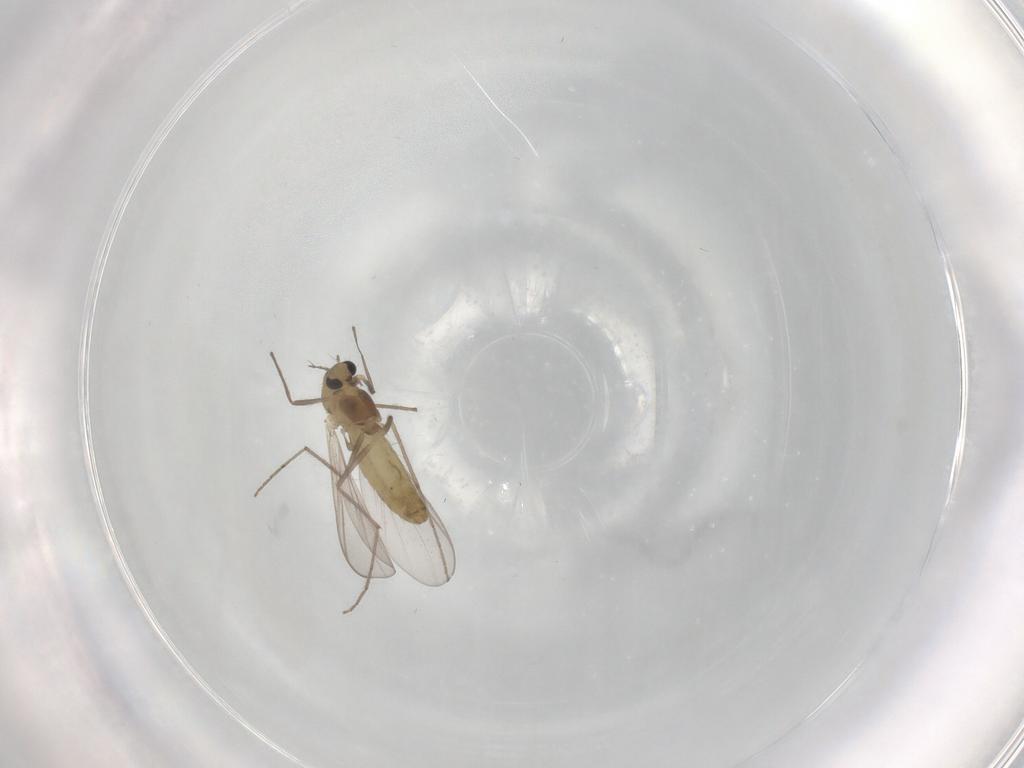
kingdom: Animalia
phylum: Arthropoda
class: Insecta
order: Diptera
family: Chironomidae
